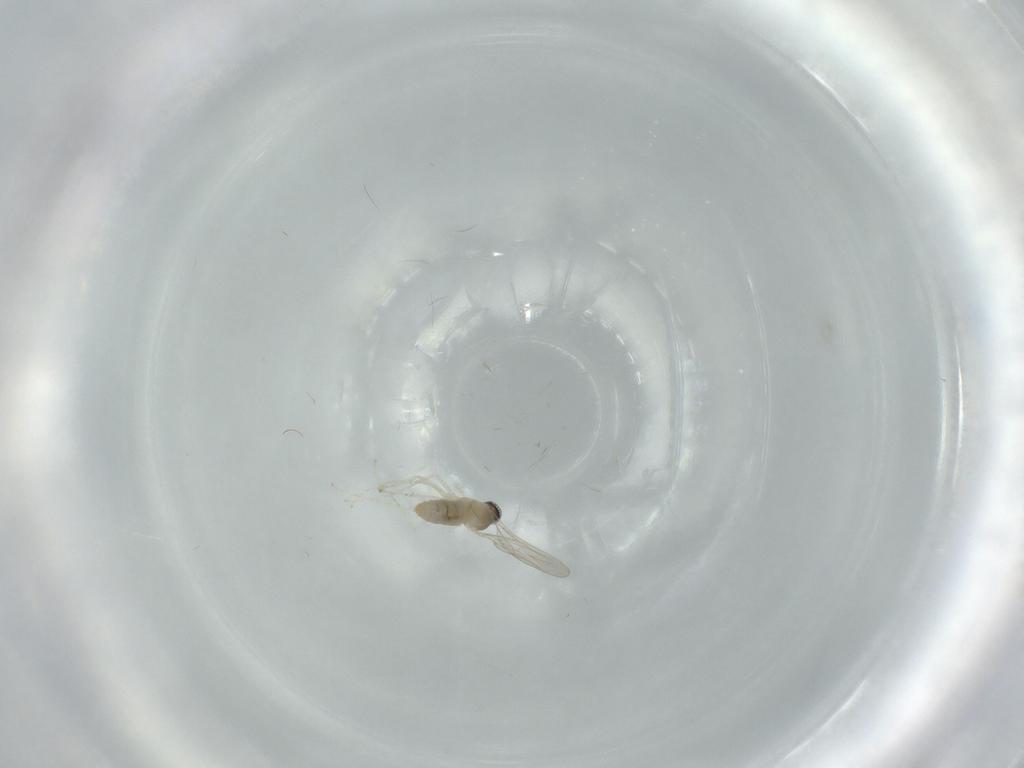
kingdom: Animalia
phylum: Arthropoda
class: Insecta
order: Diptera
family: Cecidomyiidae
